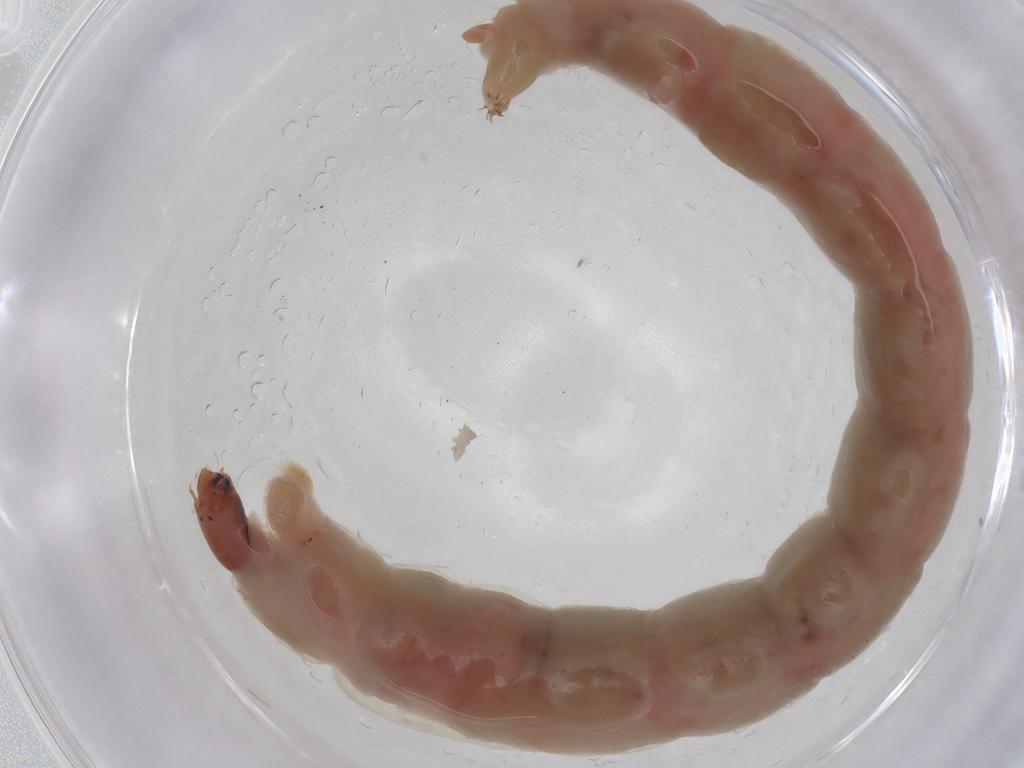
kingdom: Animalia
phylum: Arthropoda
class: Insecta
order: Diptera
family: Heleomyzidae
